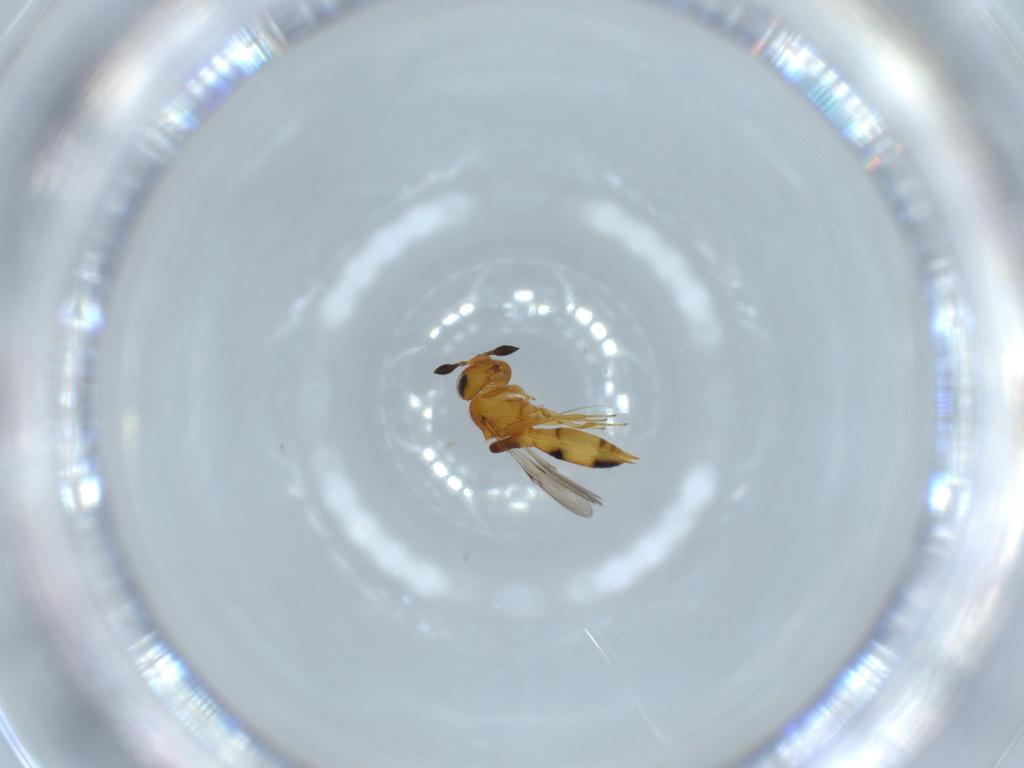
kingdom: Animalia
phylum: Arthropoda
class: Insecta
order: Hymenoptera
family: Scelionidae
